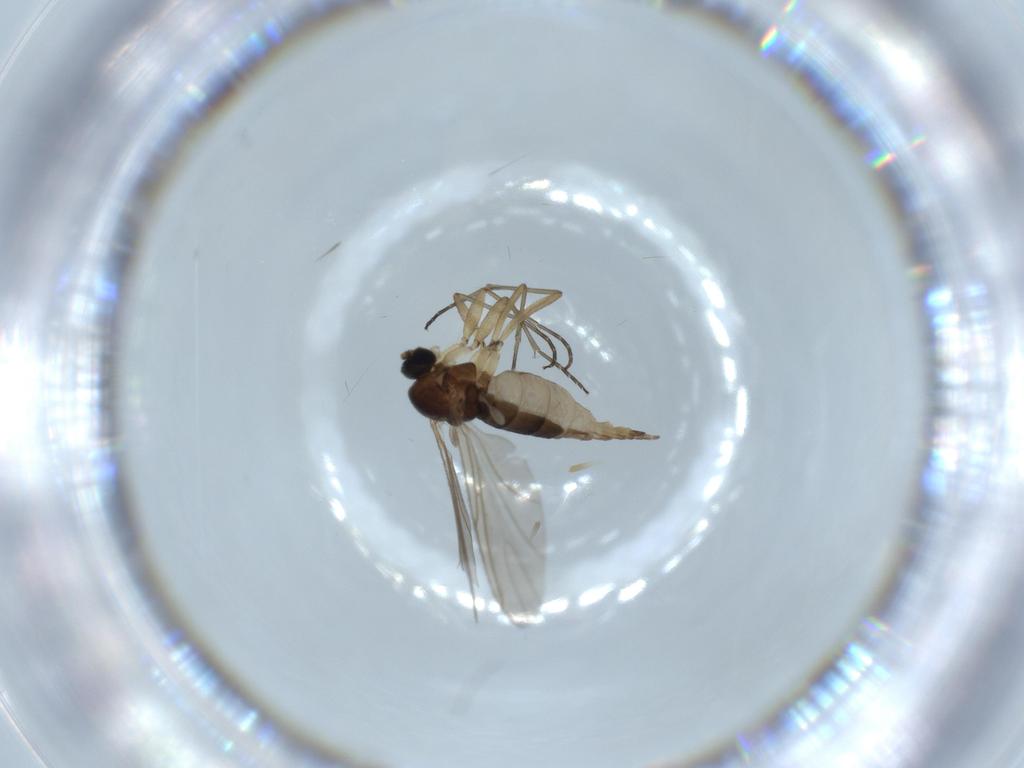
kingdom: Animalia
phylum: Arthropoda
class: Insecta
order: Diptera
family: Sciaridae
